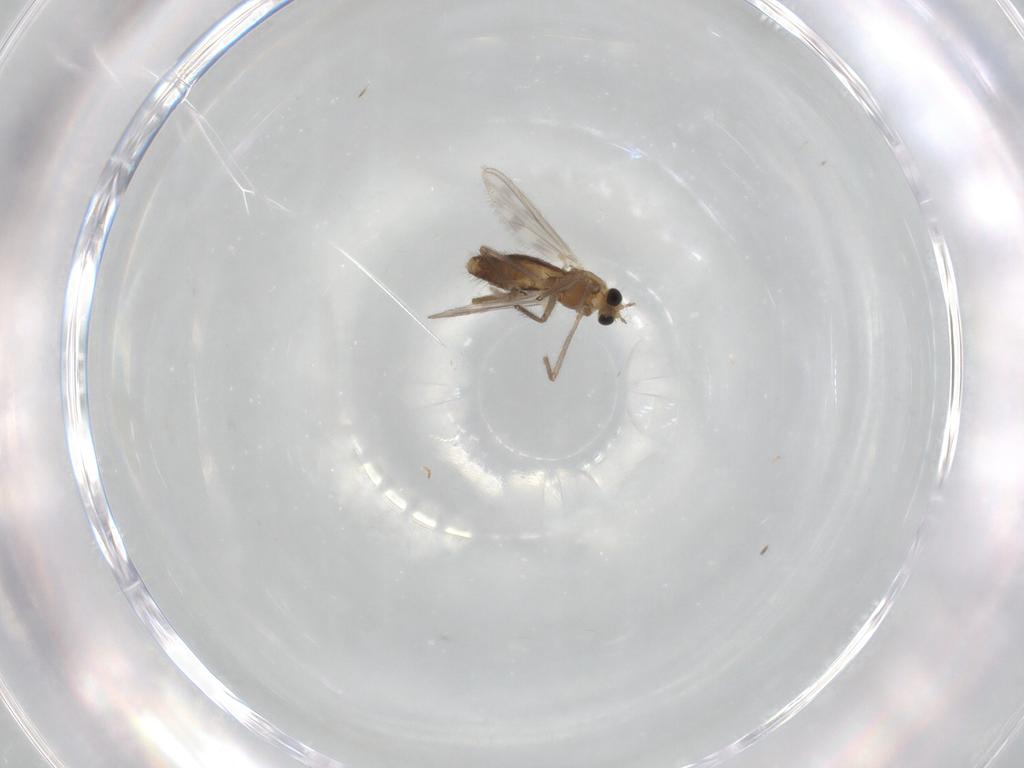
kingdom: Animalia
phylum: Arthropoda
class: Insecta
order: Diptera
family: Chironomidae
